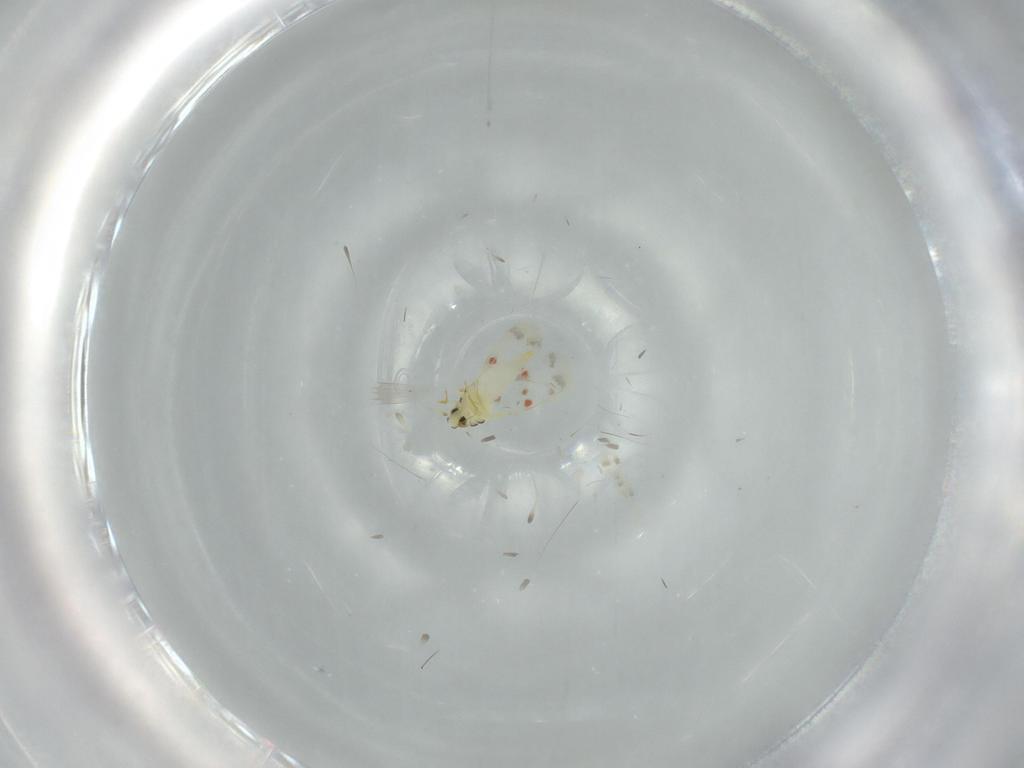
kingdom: Animalia
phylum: Arthropoda
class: Insecta
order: Hemiptera
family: Aleyrodidae
